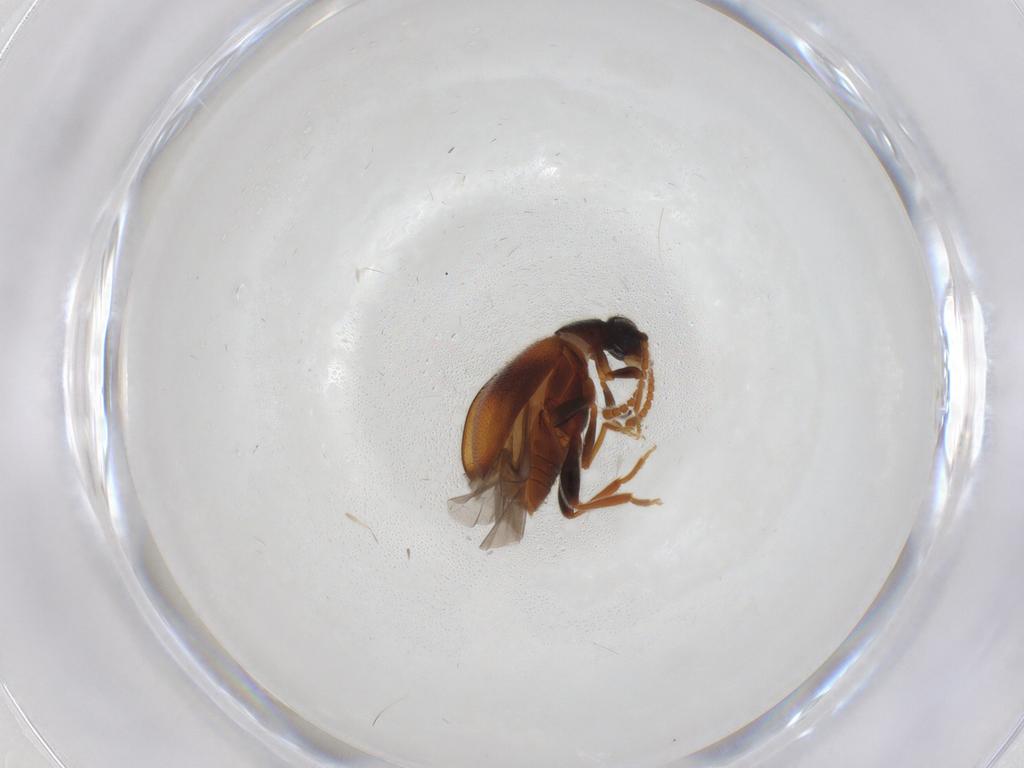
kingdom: Animalia
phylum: Arthropoda
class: Insecta
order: Coleoptera
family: Aderidae
